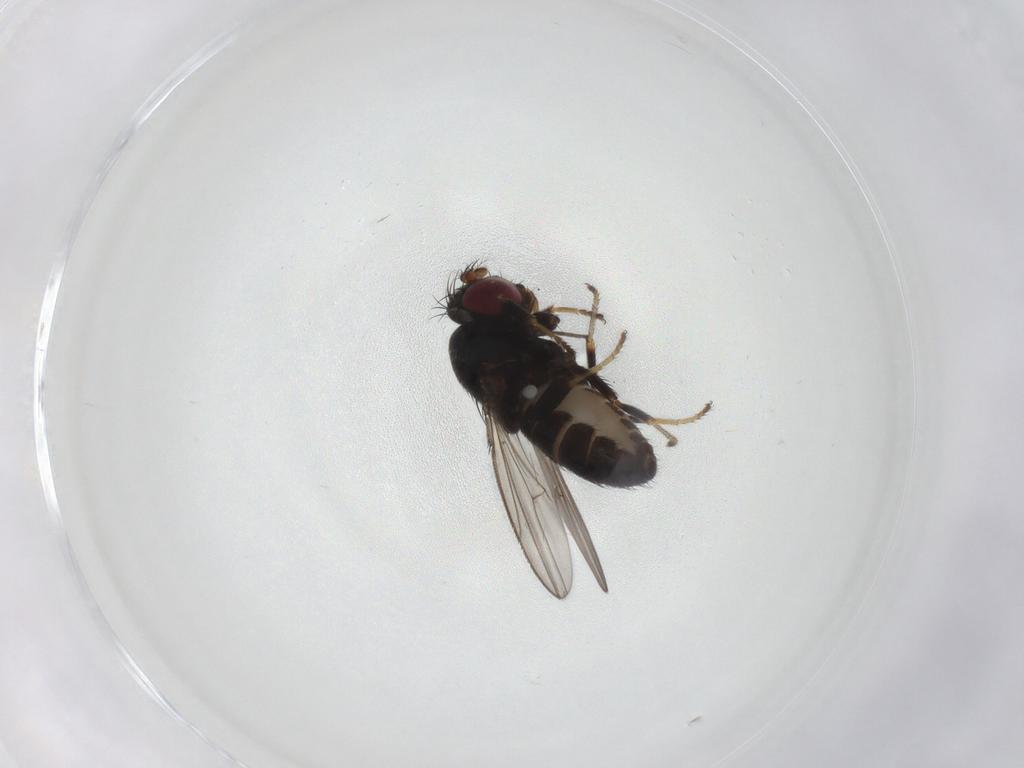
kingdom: Animalia
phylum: Arthropoda
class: Insecta
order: Diptera
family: Ephydridae
